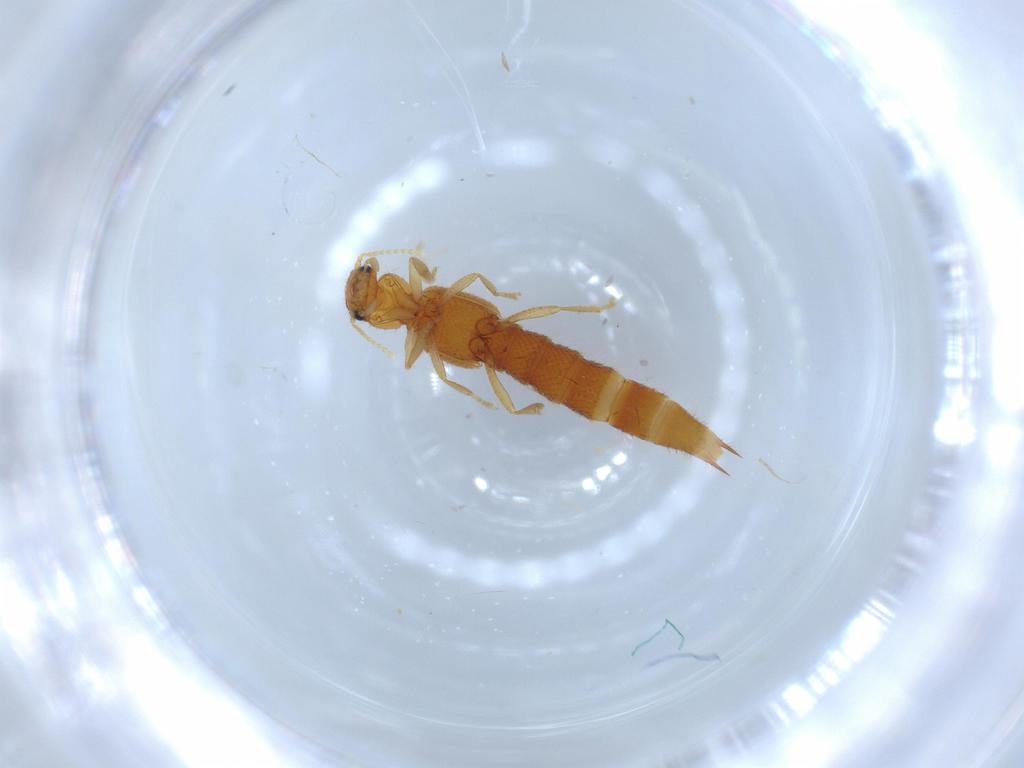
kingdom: Animalia
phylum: Arthropoda
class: Insecta
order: Coleoptera
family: Staphylinidae
